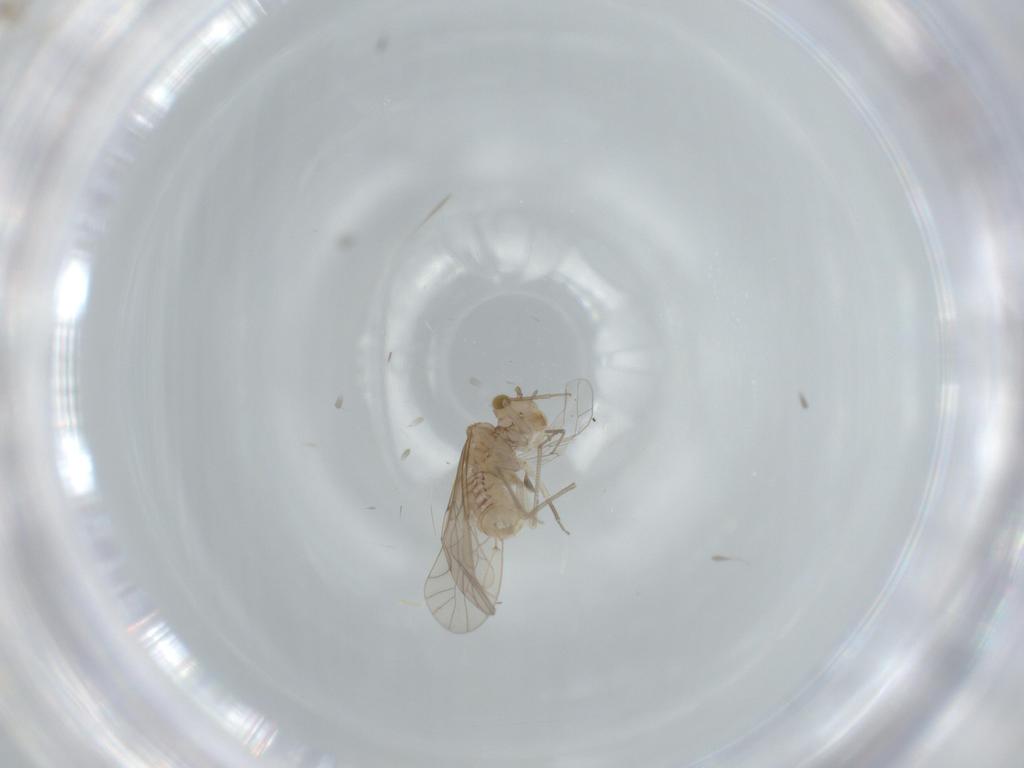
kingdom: Animalia
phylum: Arthropoda
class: Insecta
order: Psocodea
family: Lachesillidae
